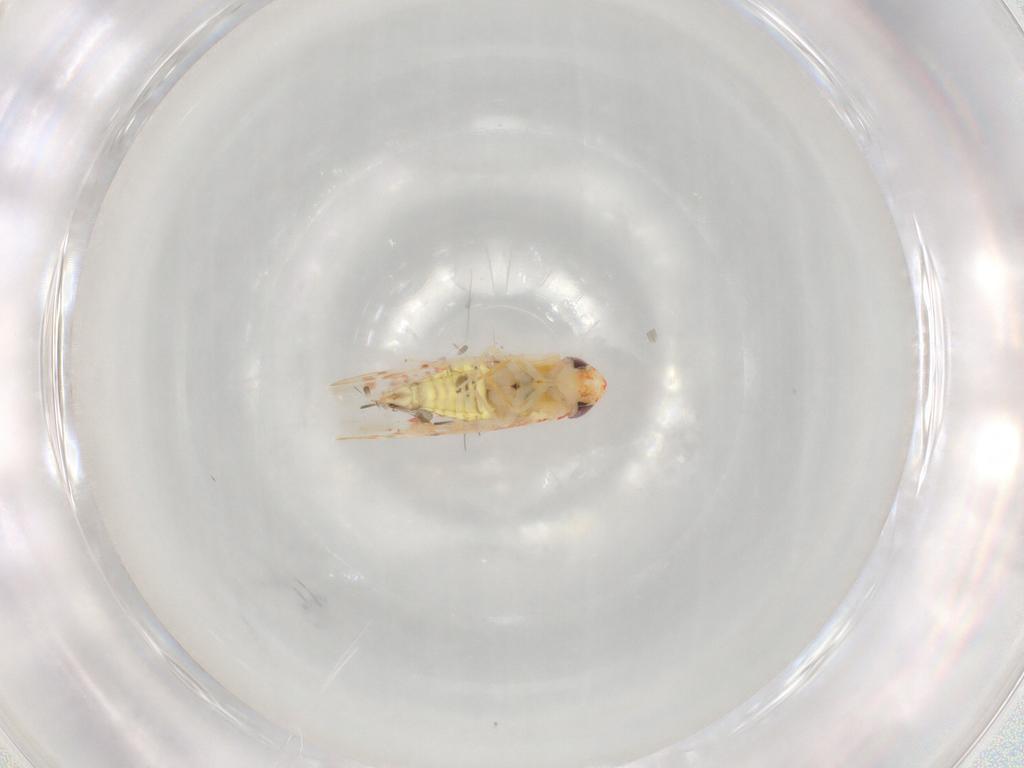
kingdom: Animalia
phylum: Arthropoda
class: Insecta
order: Hemiptera
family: Cicadellidae
